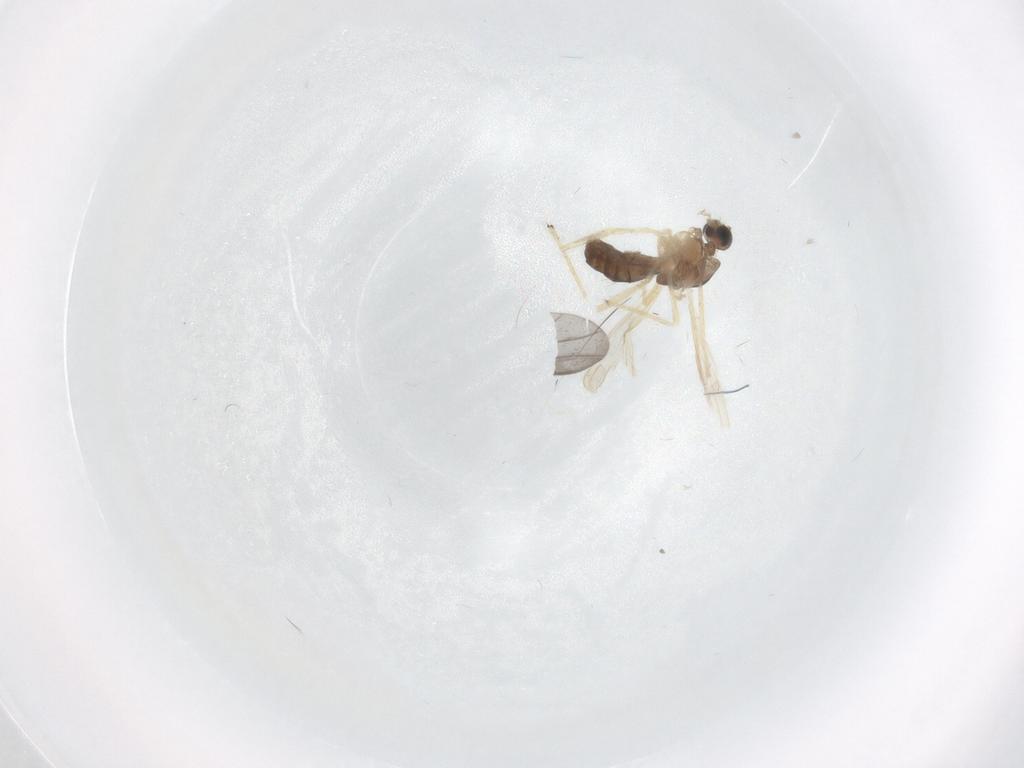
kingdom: Animalia
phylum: Arthropoda
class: Insecta
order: Diptera
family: Chironomidae
